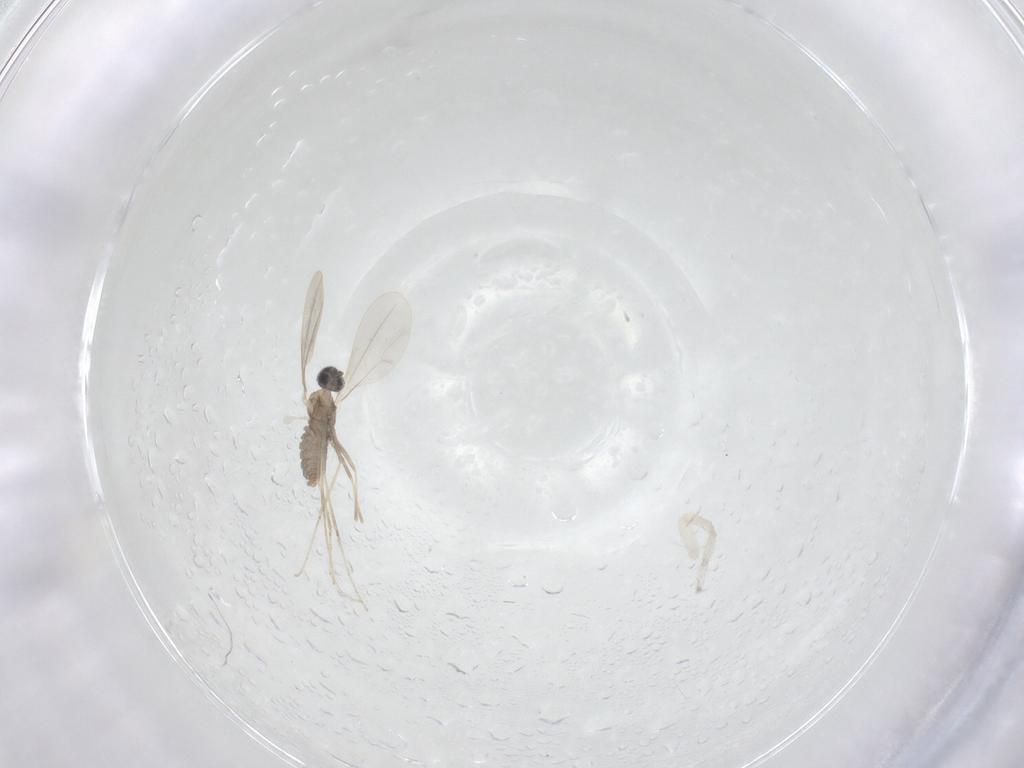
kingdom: Animalia
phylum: Arthropoda
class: Insecta
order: Diptera
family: Cecidomyiidae
